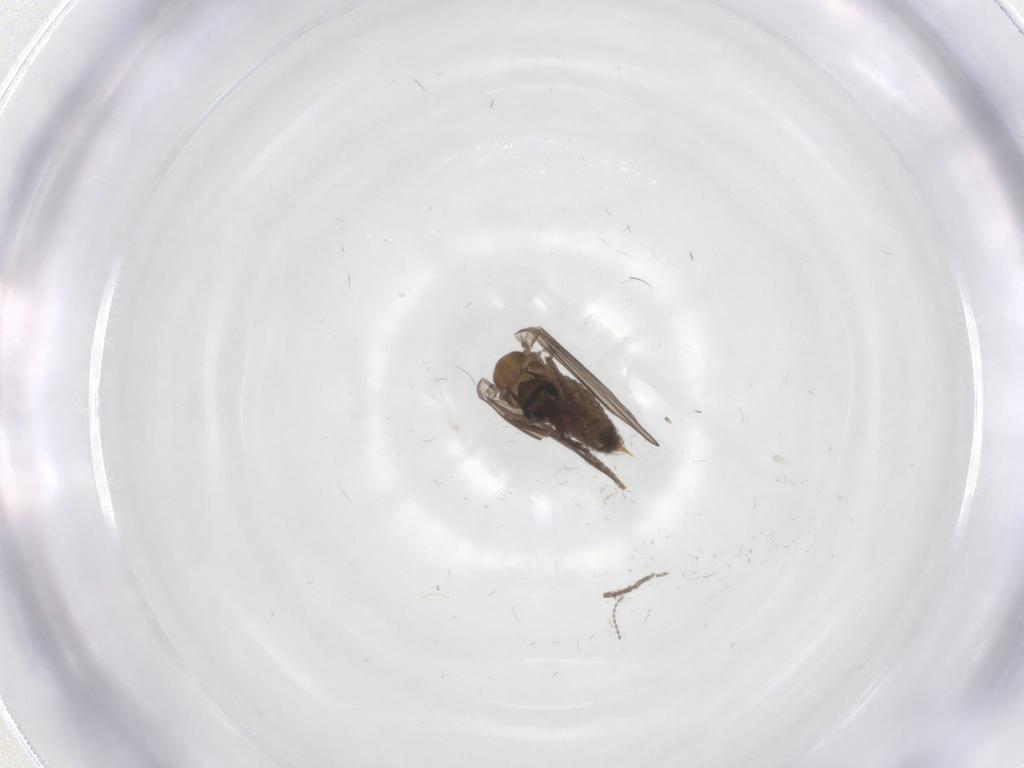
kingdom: Animalia
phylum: Arthropoda
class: Insecta
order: Diptera
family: Psychodidae
